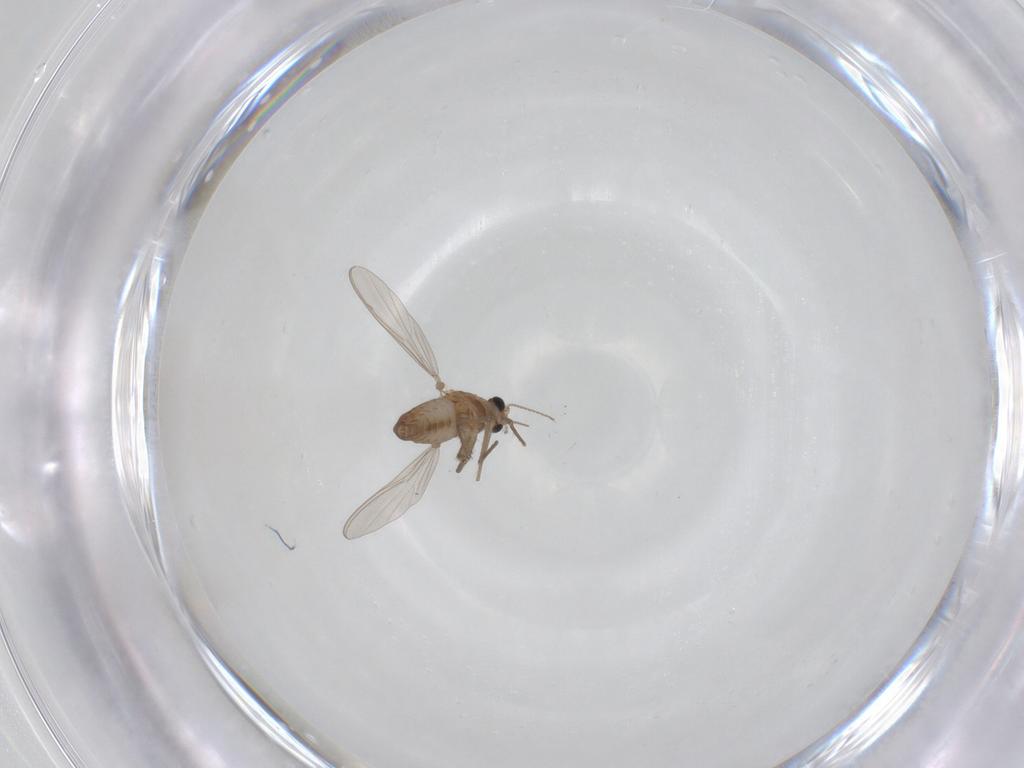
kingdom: Animalia
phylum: Arthropoda
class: Insecta
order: Diptera
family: Chironomidae
